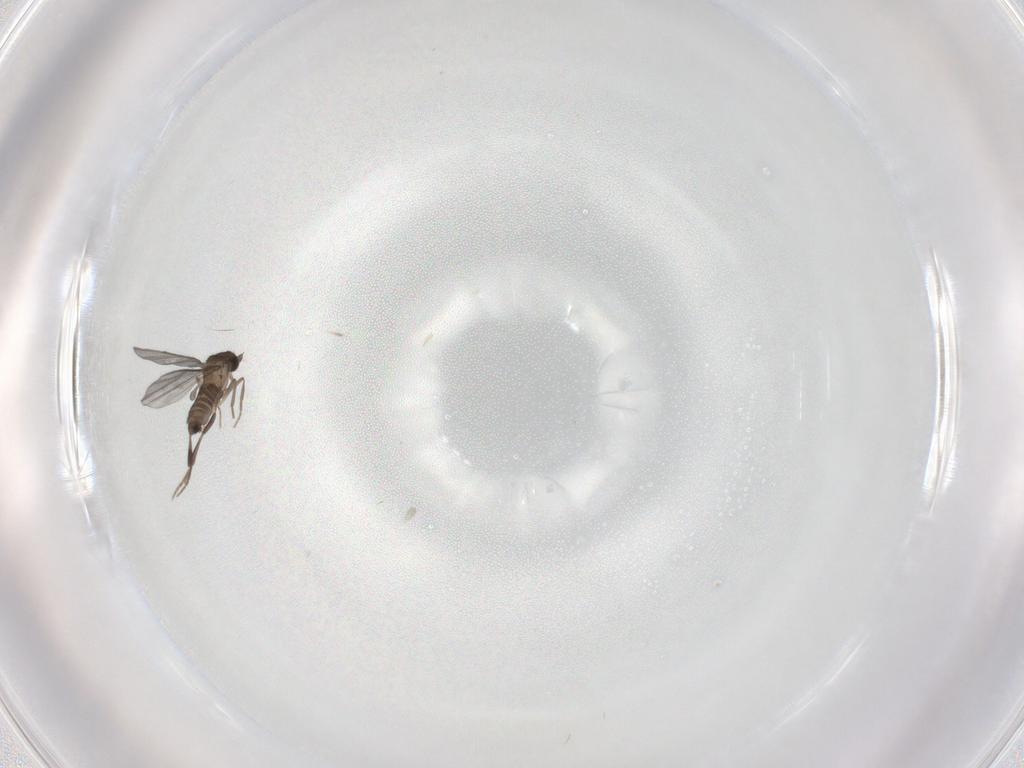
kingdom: Animalia
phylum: Arthropoda
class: Insecta
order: Diptera
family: Phoridae
